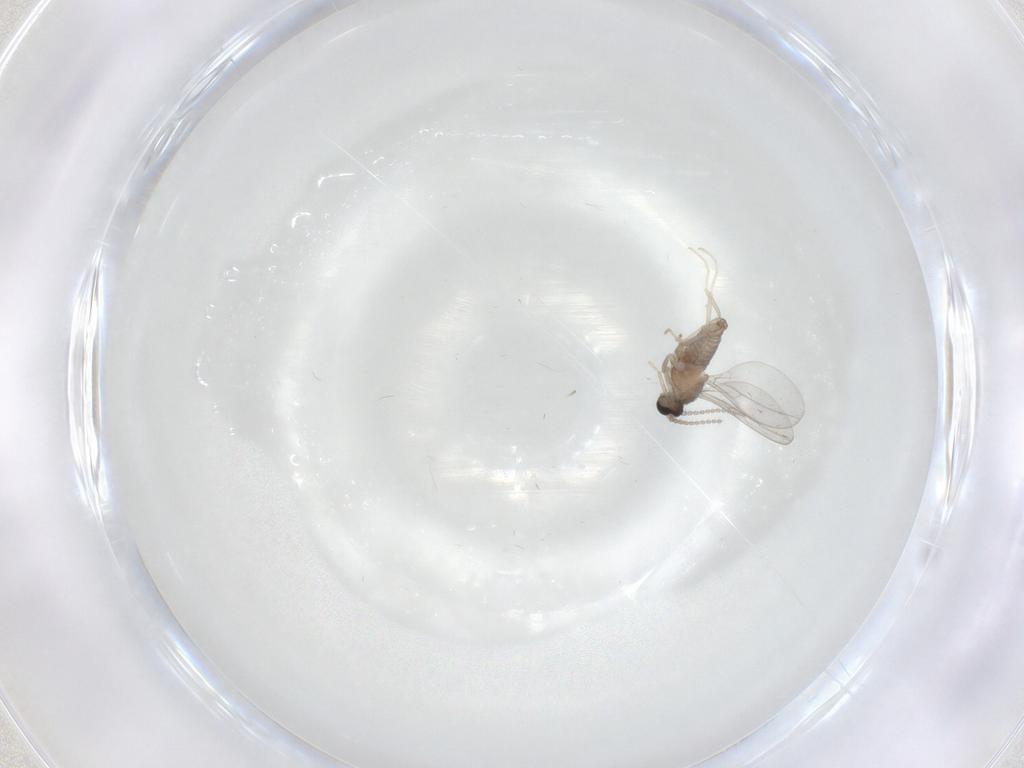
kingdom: Animalia
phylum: Arthropoda
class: Insecta
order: Diptera
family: Cecidomyiidae
